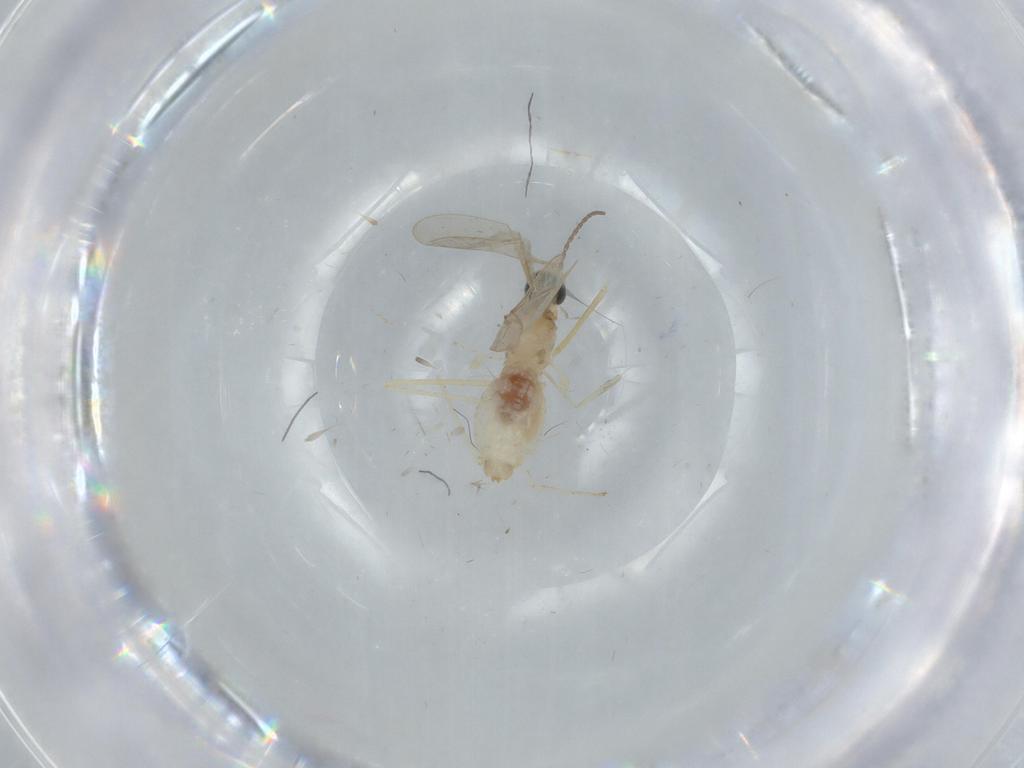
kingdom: Animalia
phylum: Arthropoda
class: Insecta
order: Diptera
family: Cecidomyiidae
